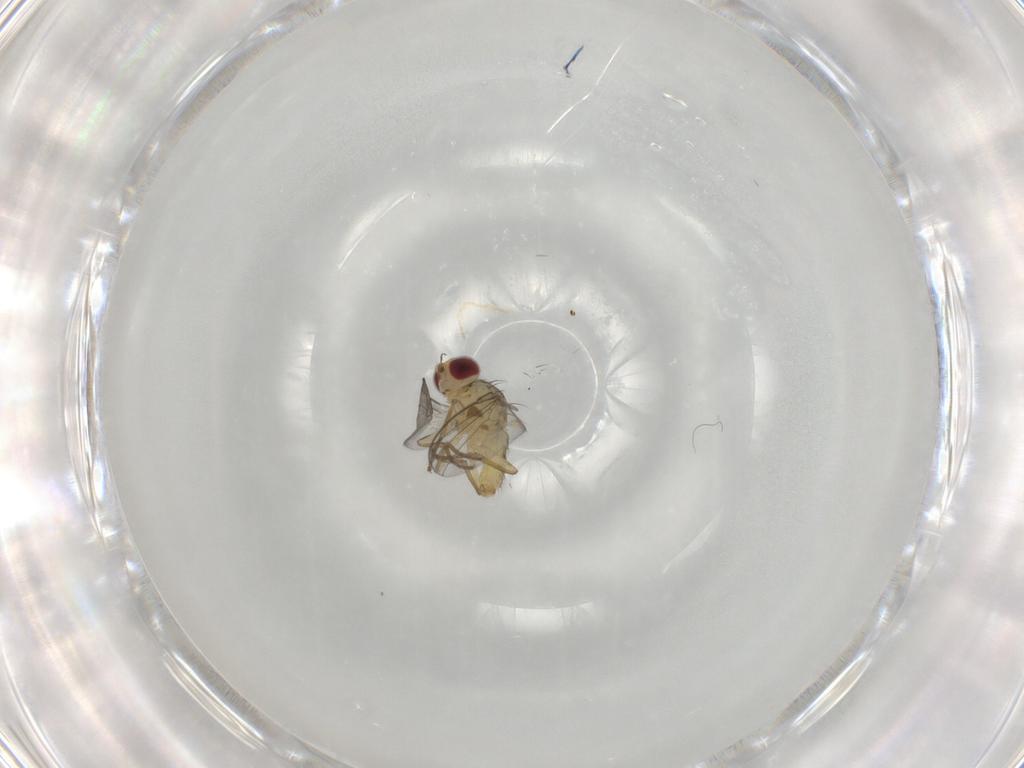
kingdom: Animalia
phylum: Arthropoda
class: Insecta
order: Diptera
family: Ceratopogonidae
